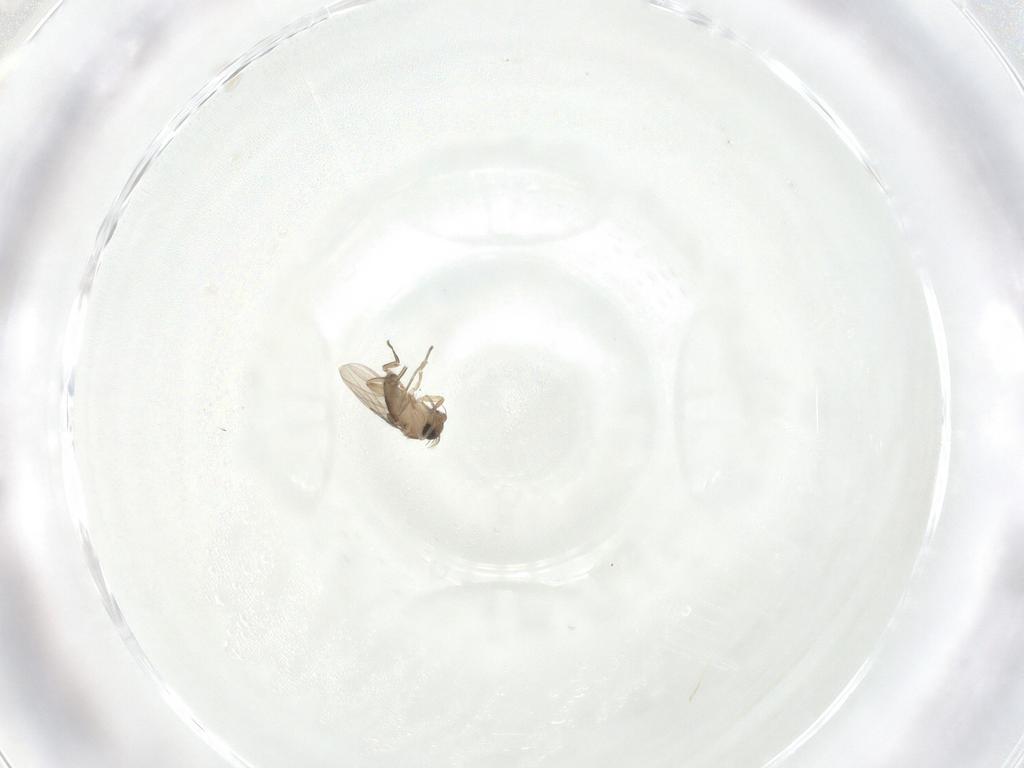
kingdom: Animalia
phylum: Arthropoda
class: Insecta
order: Diptera
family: Phoridae
